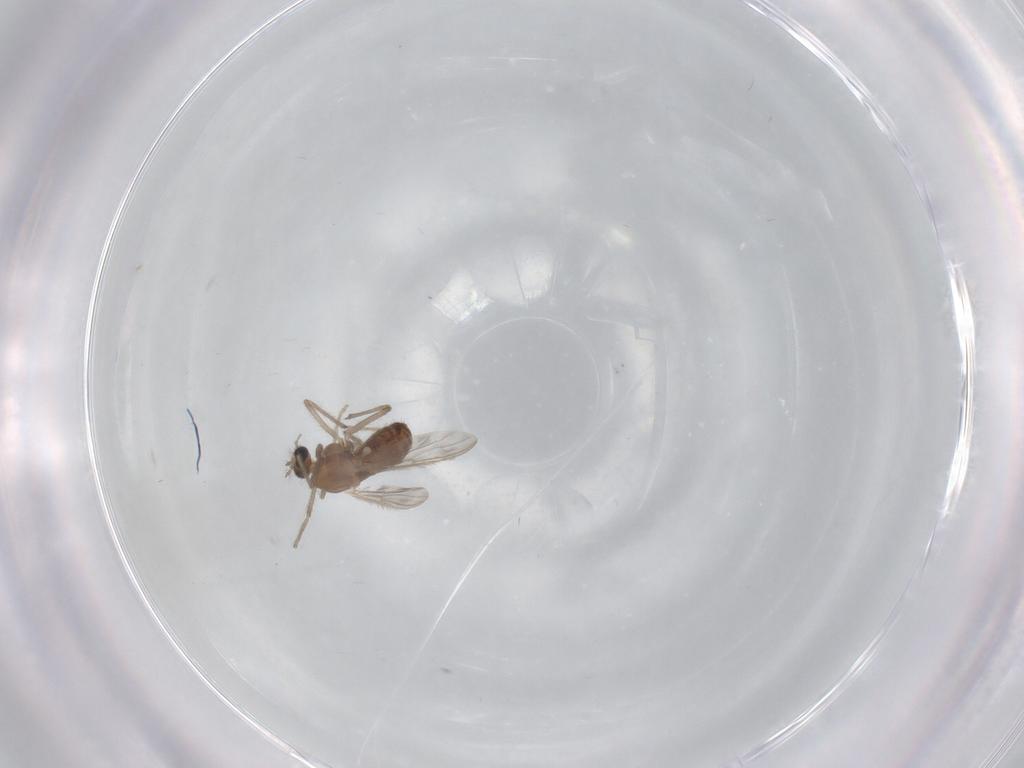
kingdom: Animalia
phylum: Arthropoda
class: Insecta
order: Diptera
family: Chironomidae
